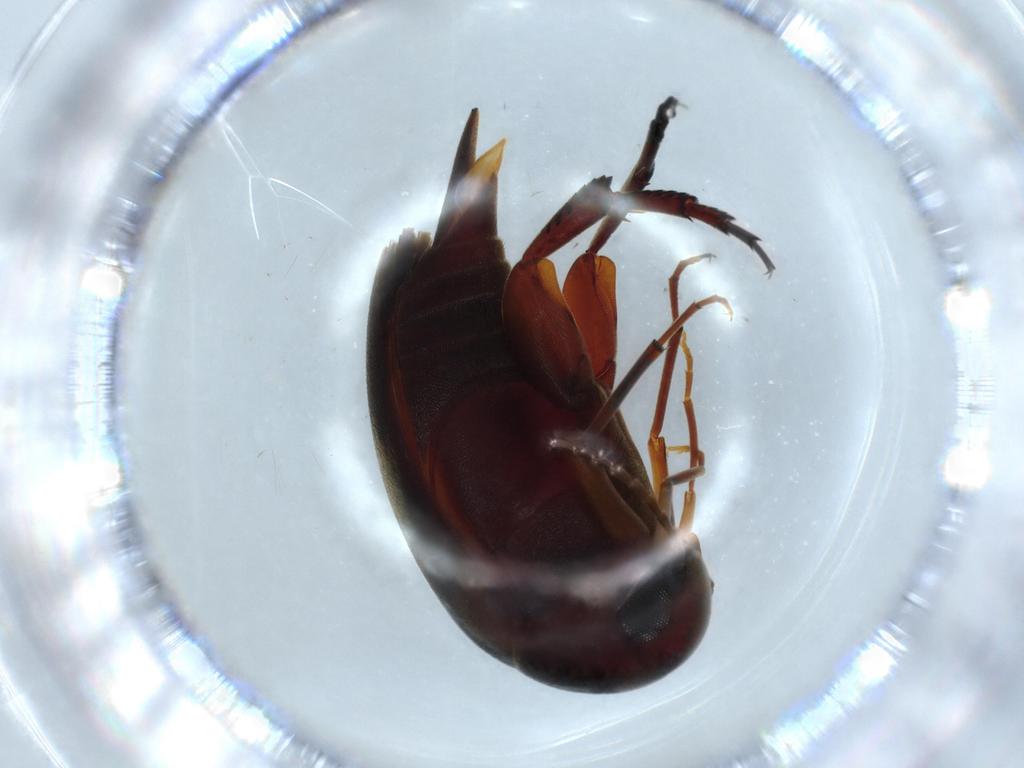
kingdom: Animalia
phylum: Arthropoda
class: Insecta
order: Coleoptera
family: Mordellidae
